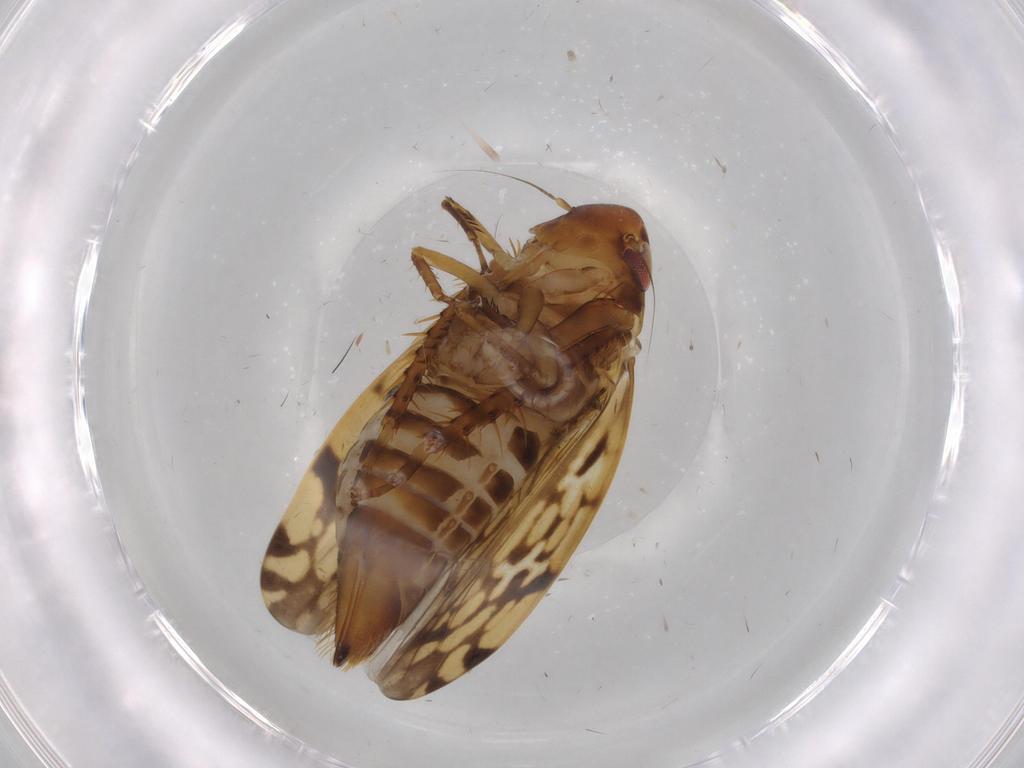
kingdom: Animalia
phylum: Arthropoda
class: Insecta
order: Hemiptera
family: Cicadellidae
